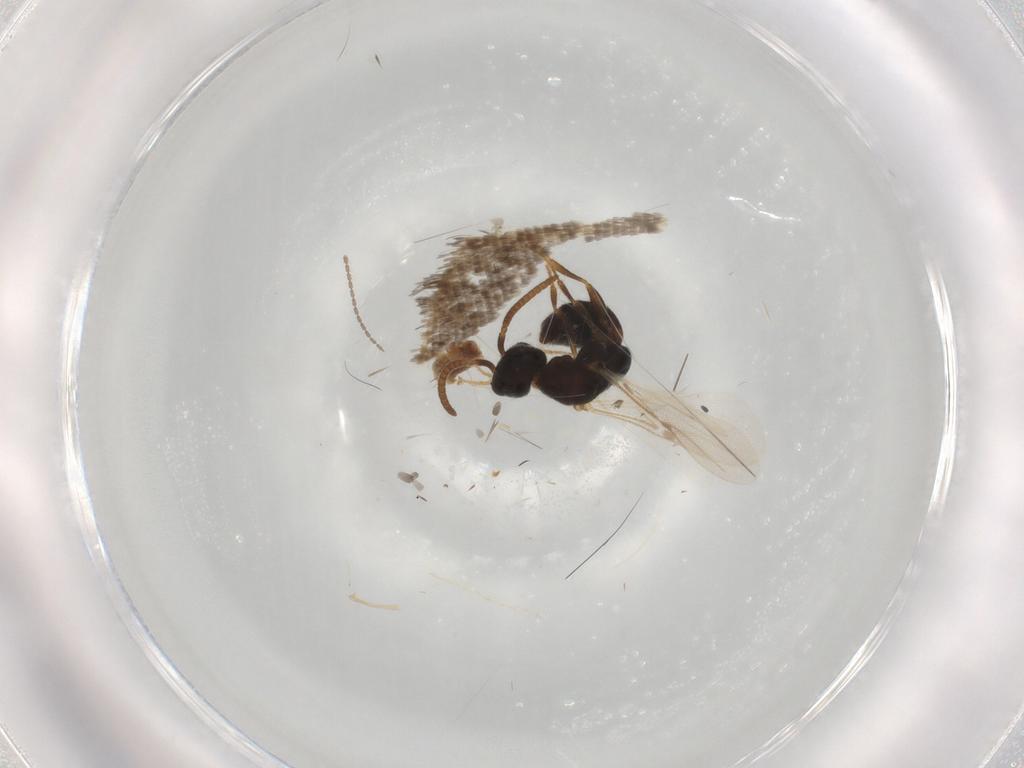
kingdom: Animalia
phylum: Arthropoda
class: Insecta
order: Hymenoptera
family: Bethylidae
